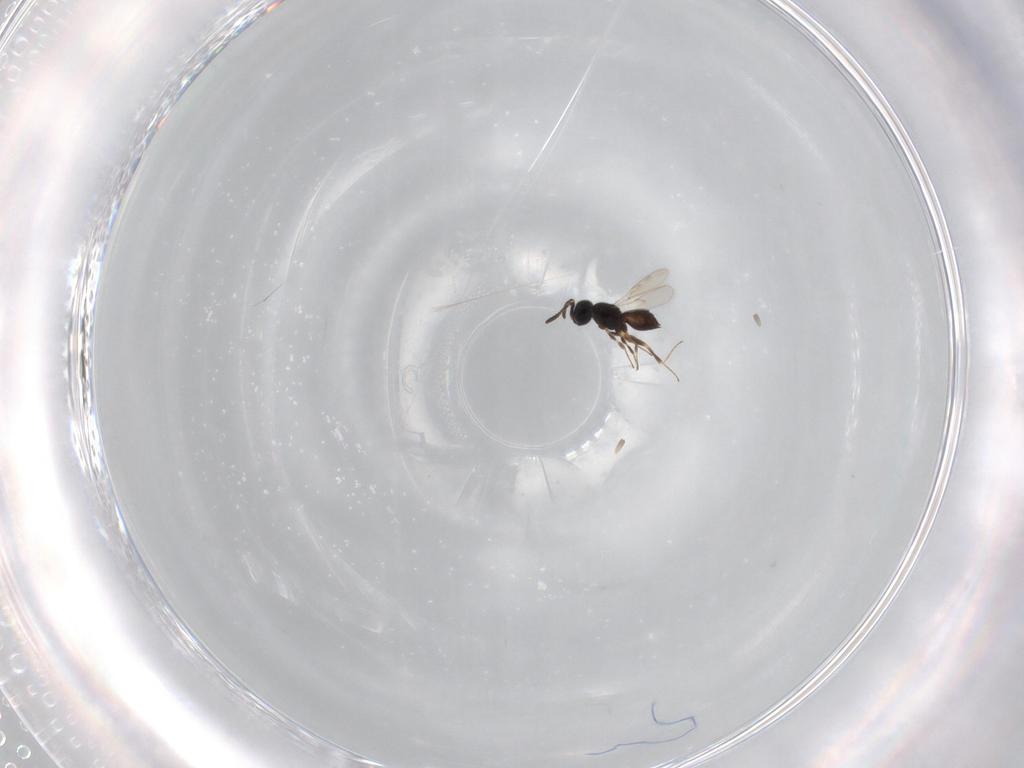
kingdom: Animalia
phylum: Arthropoda
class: Insecta
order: Hymenoptera
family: Scelionidae
